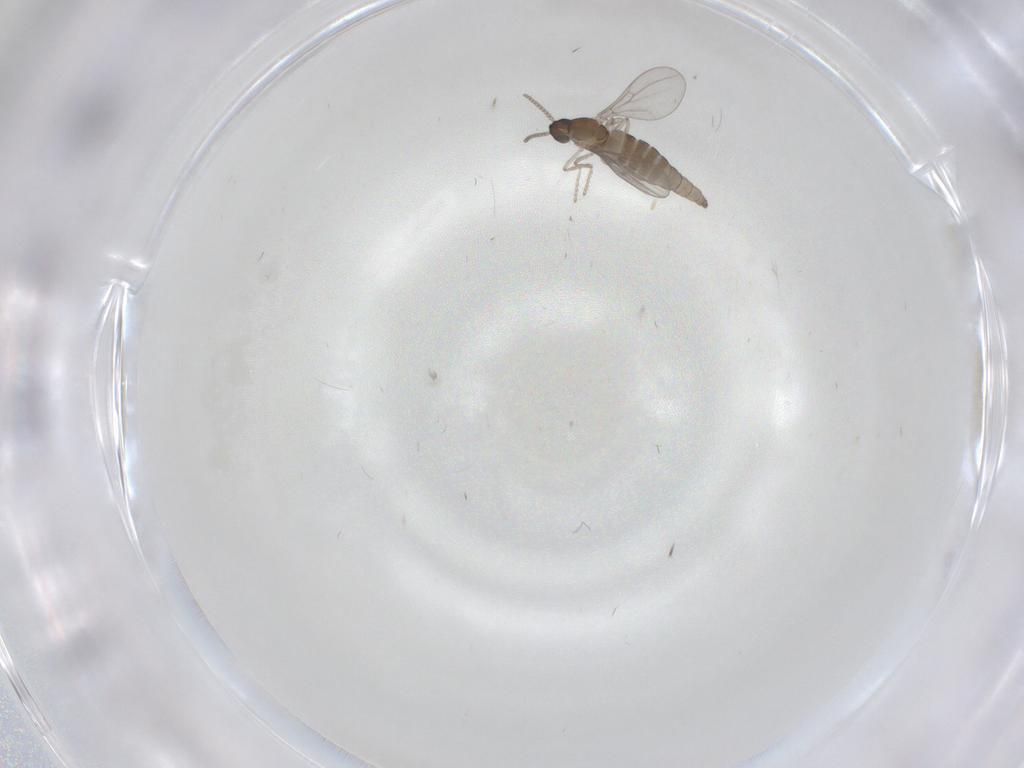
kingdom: Animalia
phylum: Arthropoda
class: Insecta
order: Diptera
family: Cecidomyiidae
